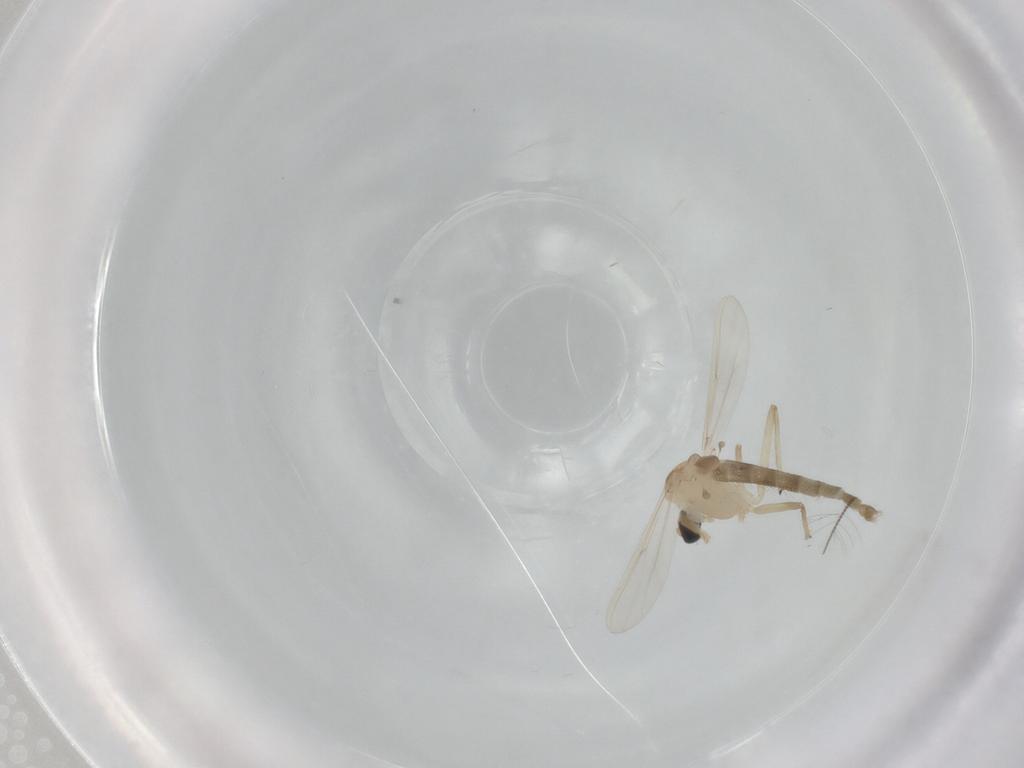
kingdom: Animalia
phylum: Arthropoda
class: Insecta
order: Diptera
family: Chironomidae
